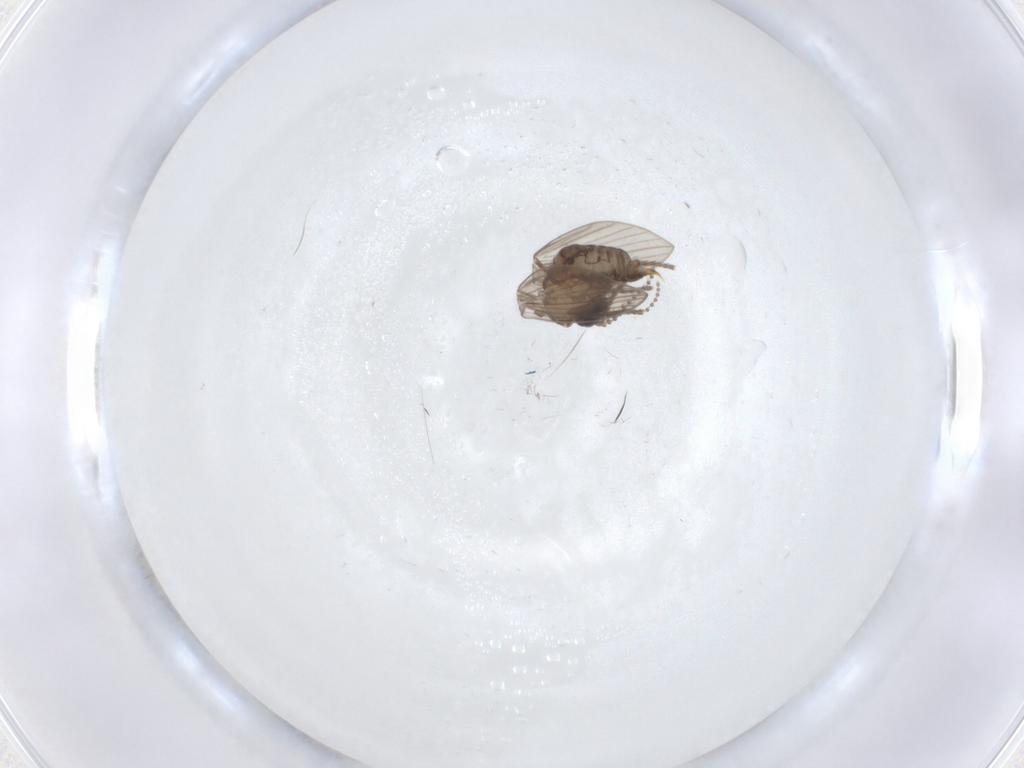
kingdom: Animalia
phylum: Arthropoda
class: Insecta
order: Diptera
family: Psychodidae
